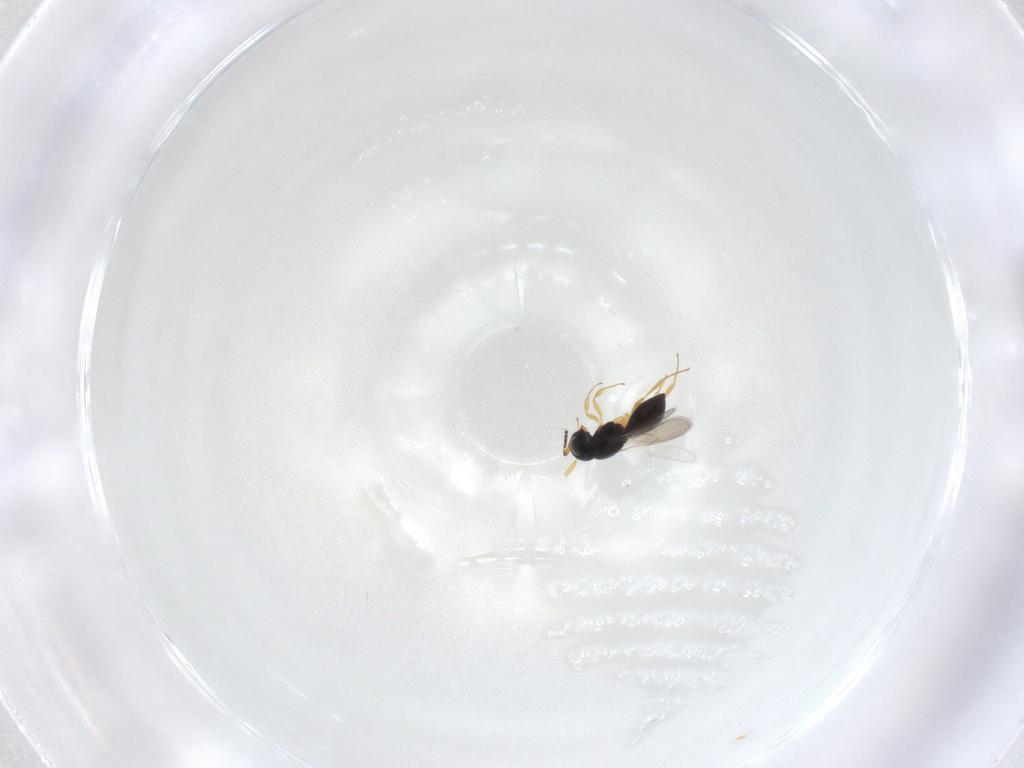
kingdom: Animalia
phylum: Arthropoda
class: Insecta
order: Hymenoptera
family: Scelionidae
